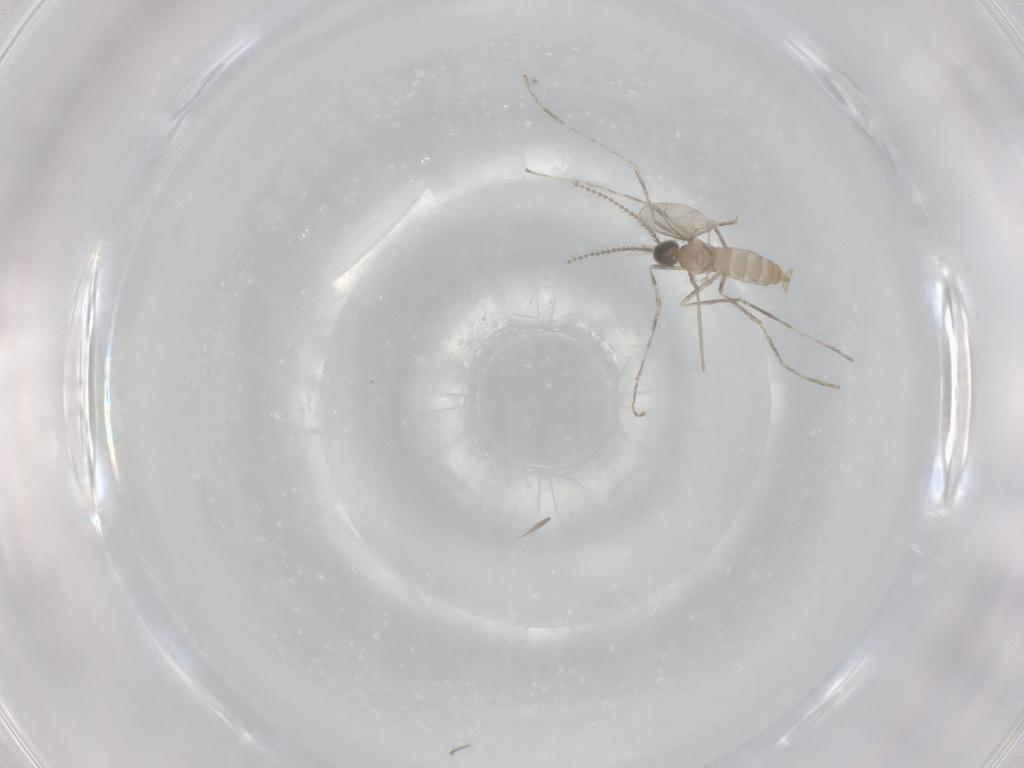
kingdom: Animalia
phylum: Arthropoda
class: Insecta
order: Diptera
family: Cecidomyiidae
